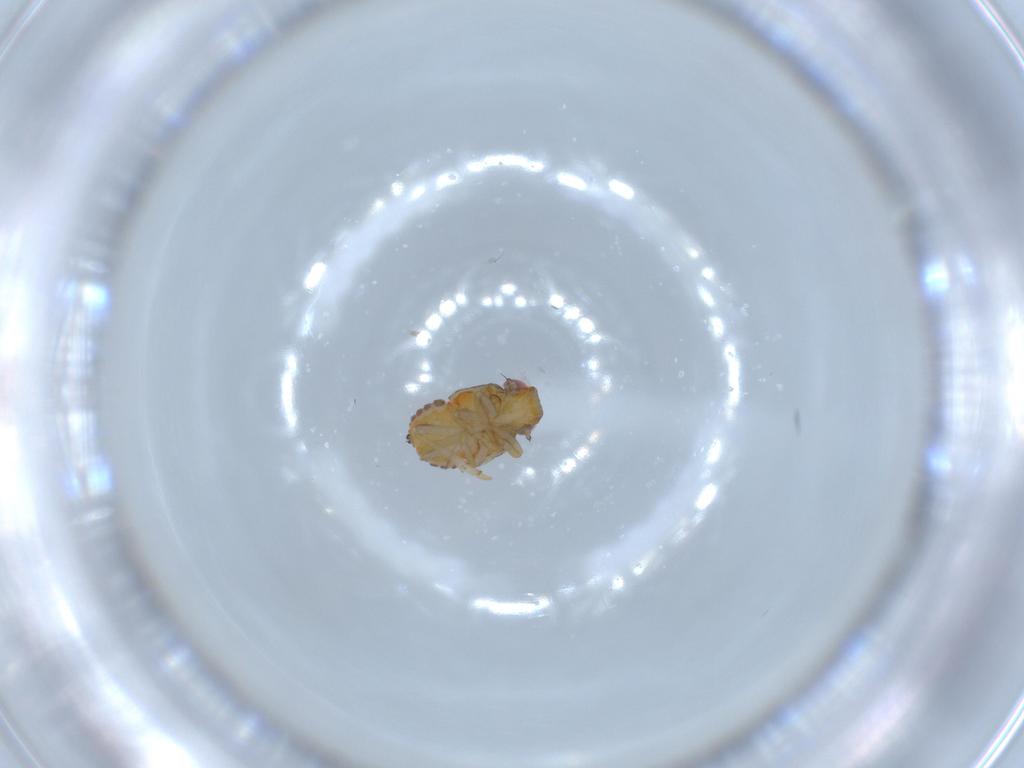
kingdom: Animalia
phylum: Arthropoda
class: Insecta
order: Hemiptera
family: Issidae
